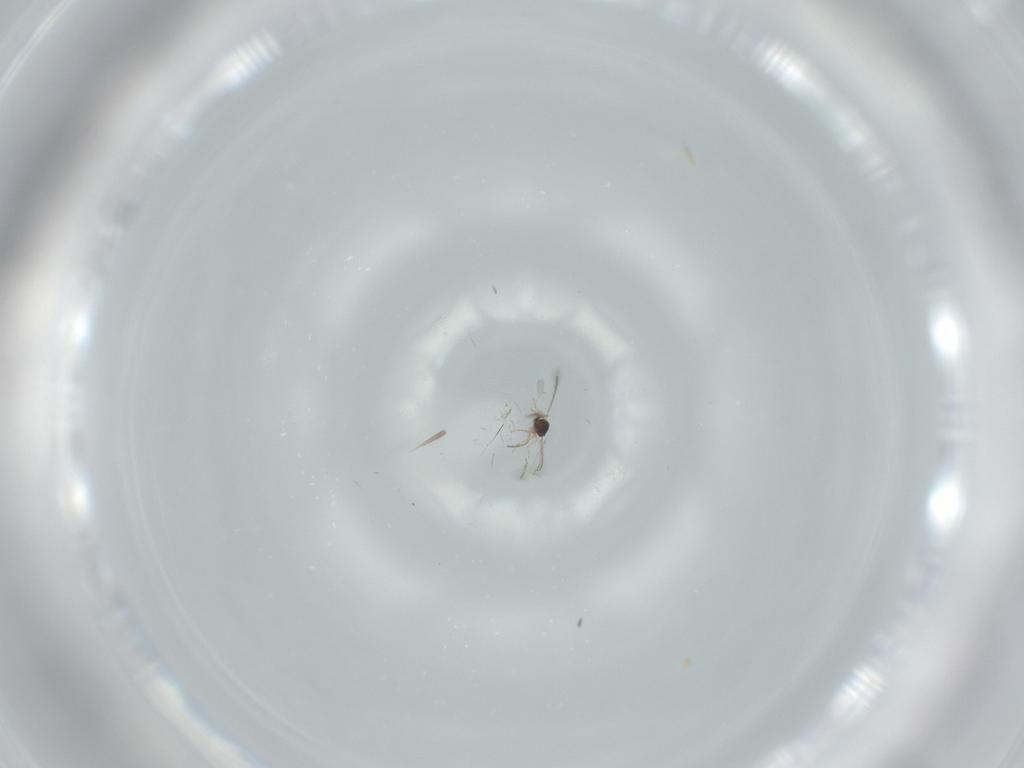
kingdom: Animalia
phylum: Arthropoda
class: Insecta
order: Hymenoptera
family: Mymaridae
